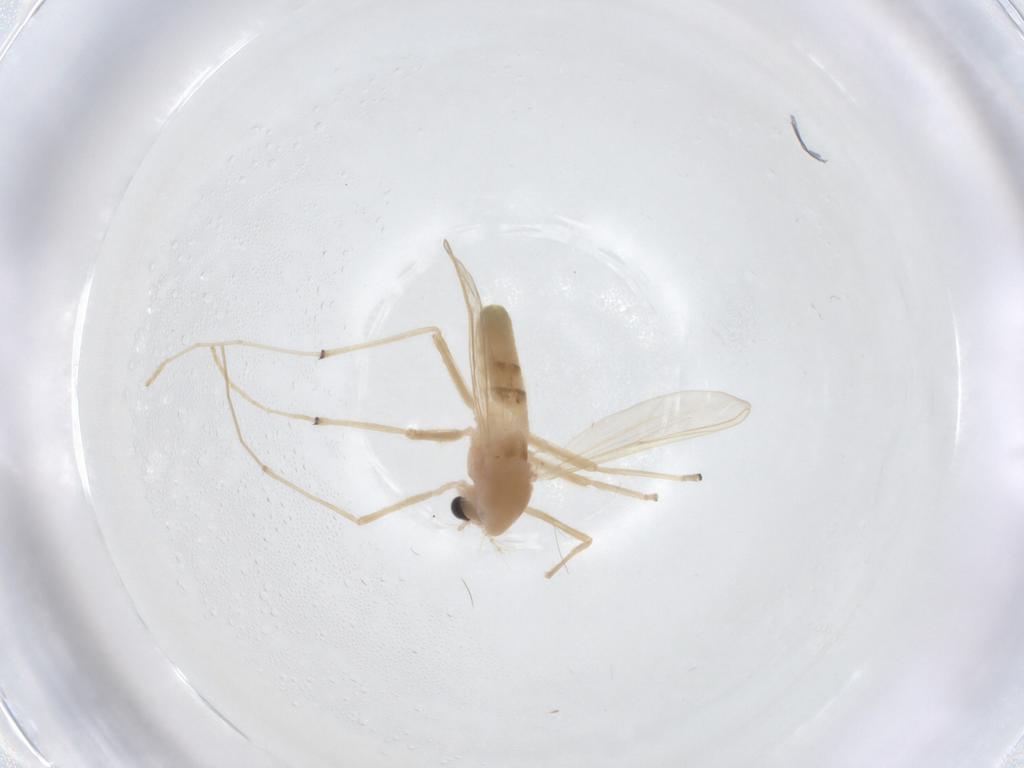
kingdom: Animalia
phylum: Arthropoda
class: Insecta
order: Diptera
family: Chironomidae
